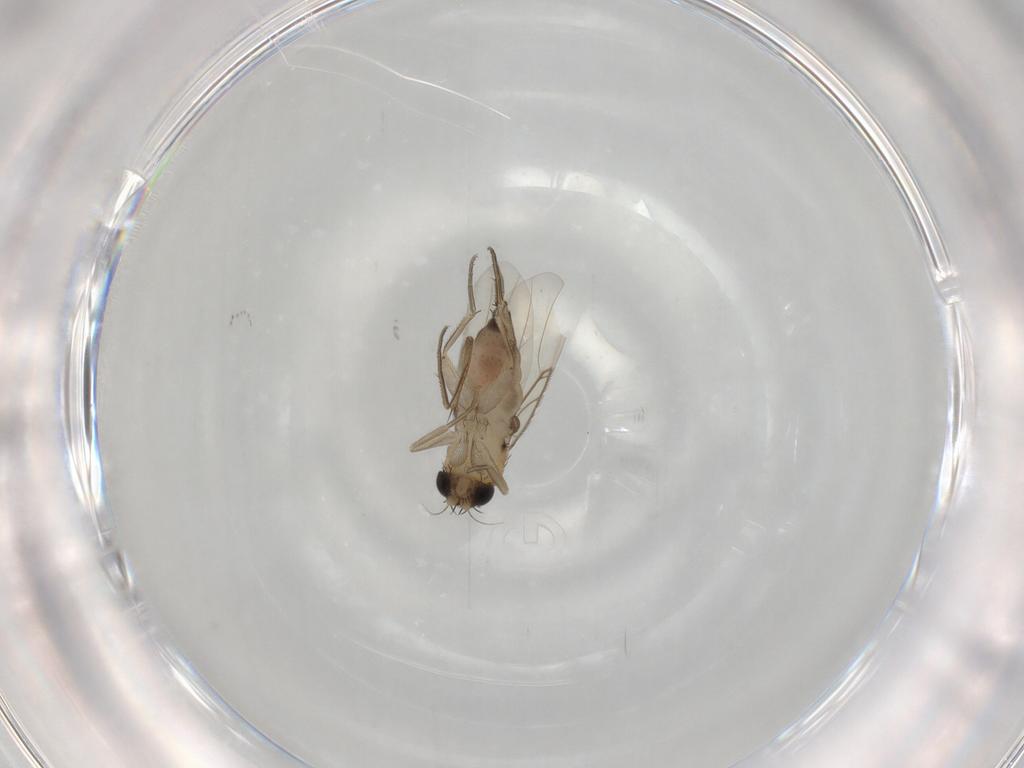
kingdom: Animalia
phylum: Arthropoda
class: Insecta
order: Diptera
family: Phoridae
